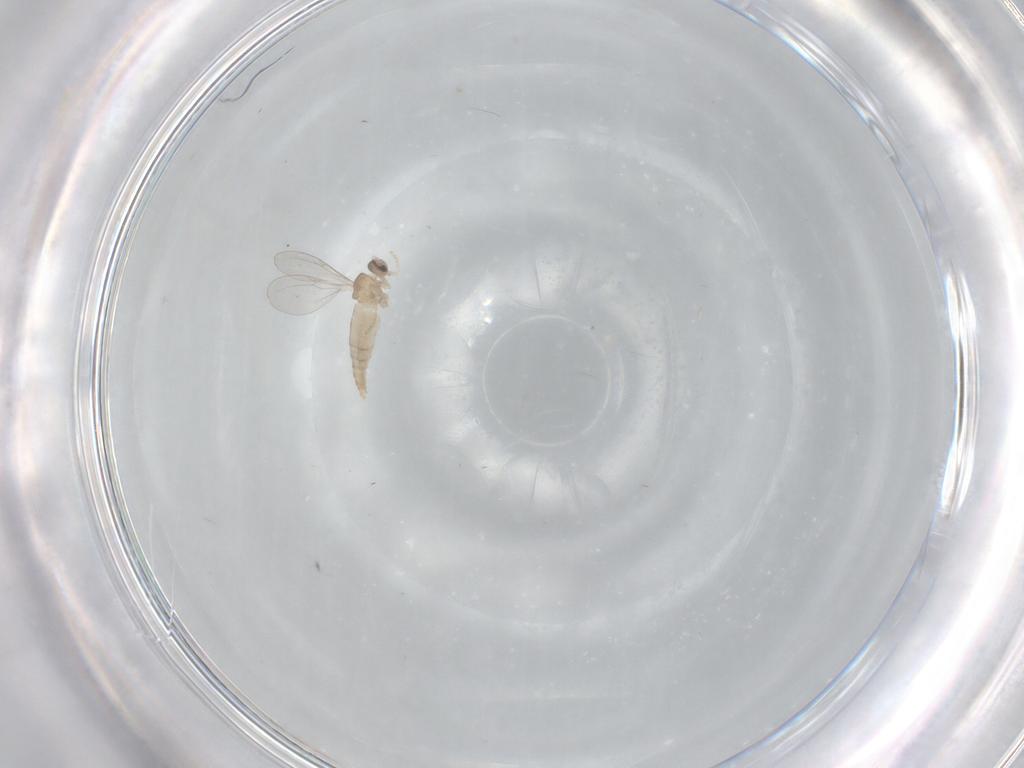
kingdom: Animalia
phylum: Arthropoda
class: Insecta
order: Diptera
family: Cecidomyiidae
